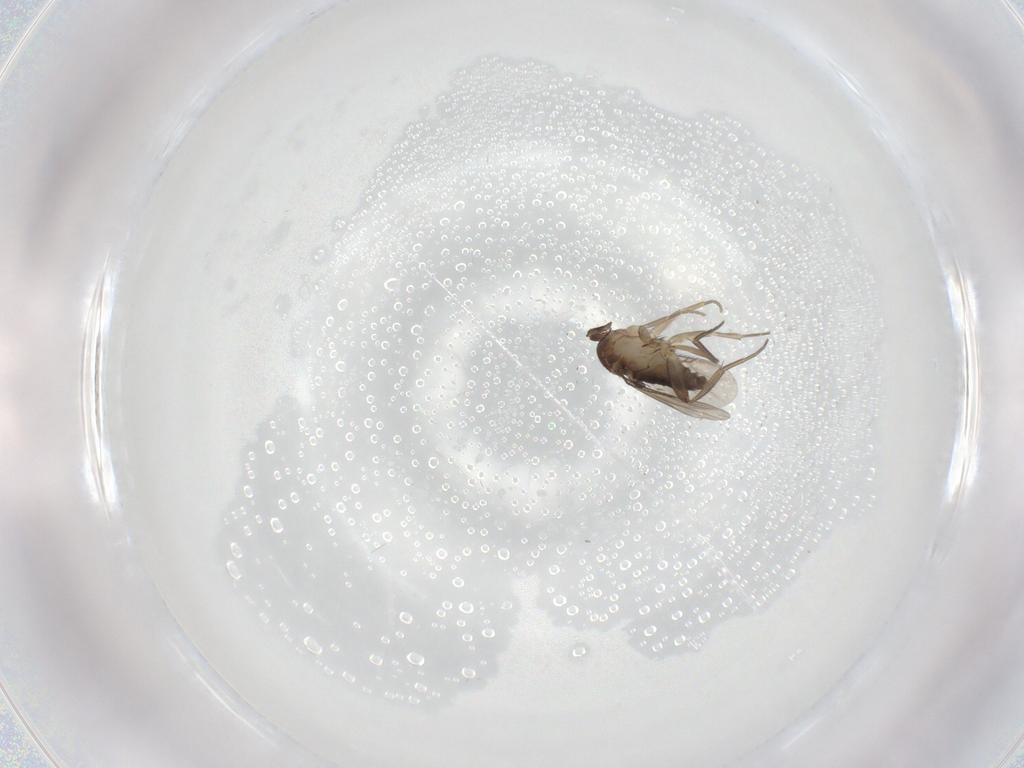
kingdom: Animalia
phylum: Arthropoda
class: Insecta
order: Diptera
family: Phoridae
